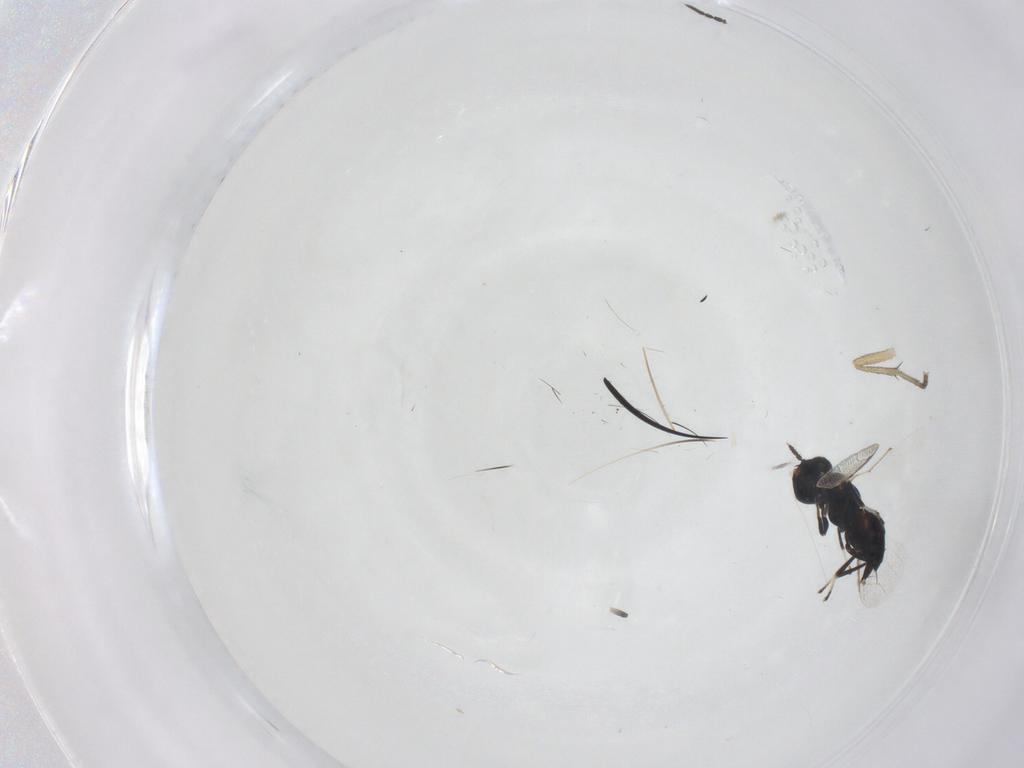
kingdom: Animalia
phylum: Arthropoda
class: Insecta
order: Hymenoptera
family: Eulophidae
